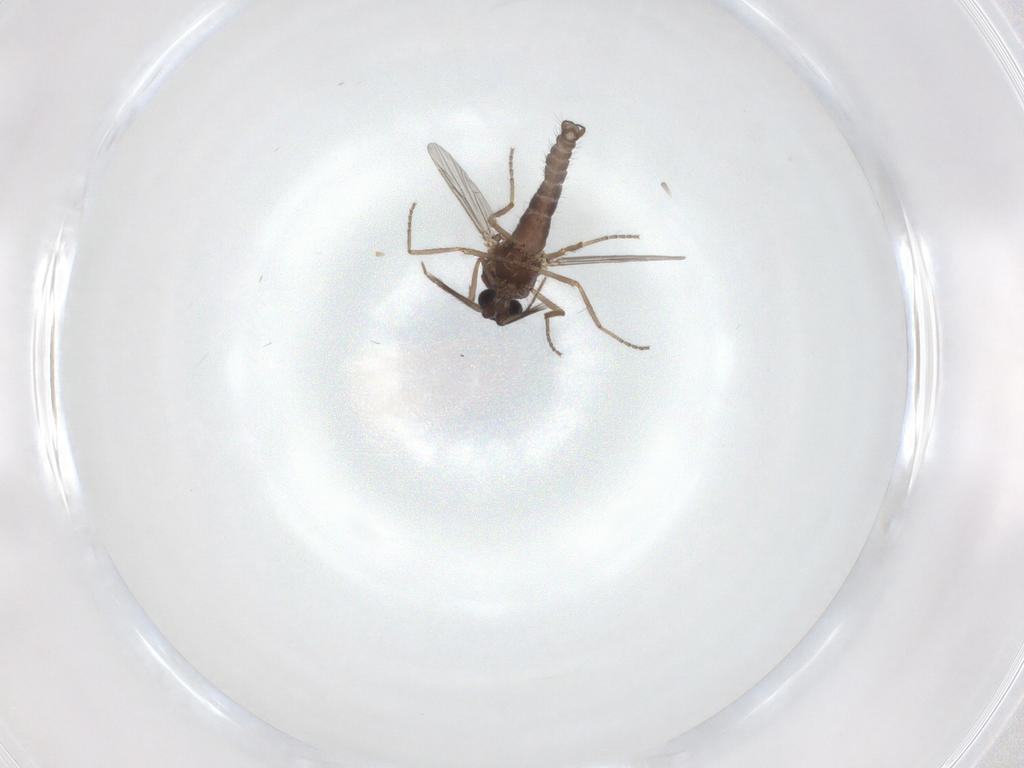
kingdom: Animalia
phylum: Arthropoda
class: Insecta
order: Diptera
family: Ceratopogonidae
